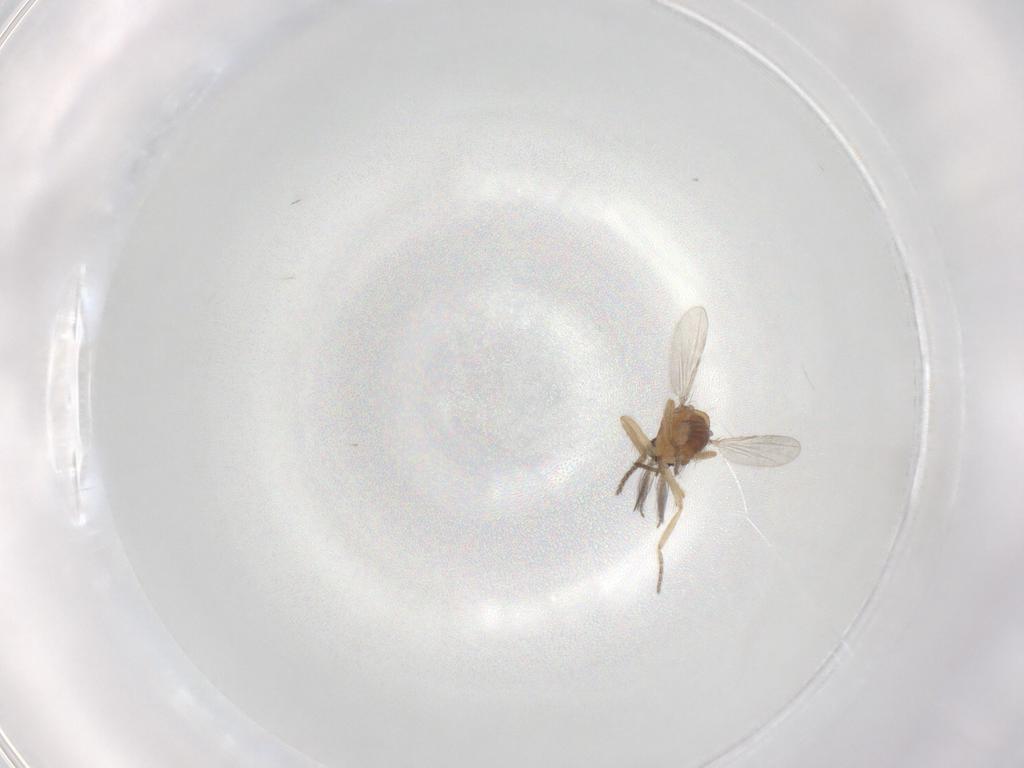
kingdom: Animalia
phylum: Arthropoda
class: Insecta
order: Diptera
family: Ceratopogonidae
